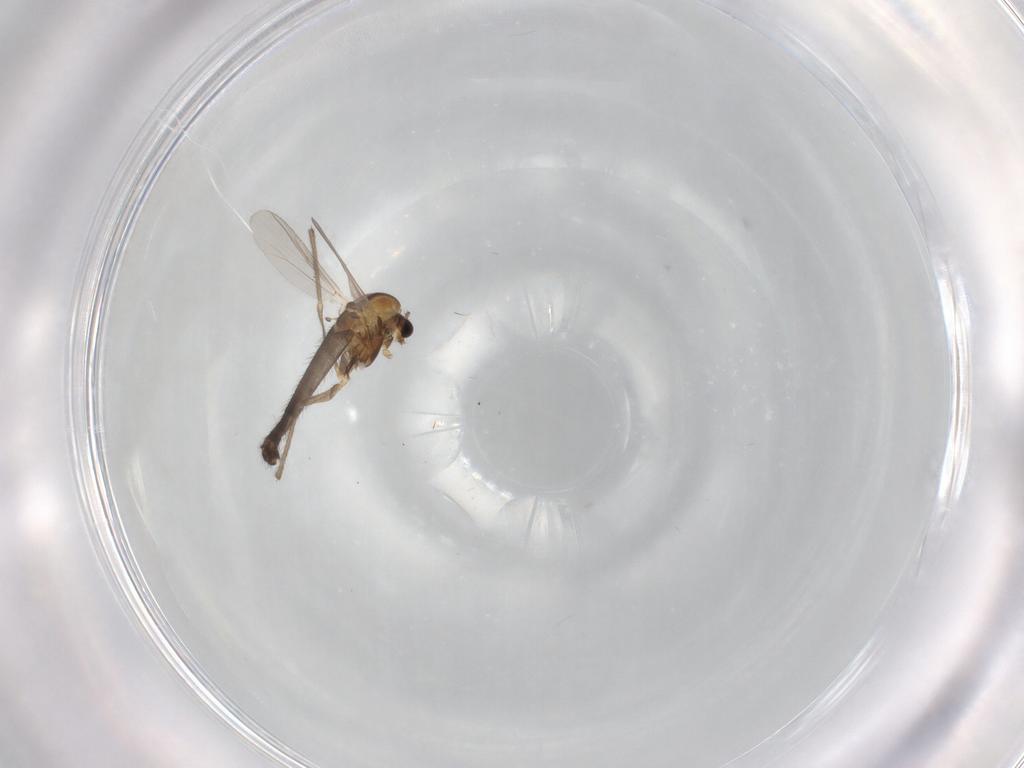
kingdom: Animalia
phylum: Arthropoda
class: Insecta
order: Diptera
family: Chironomidae
